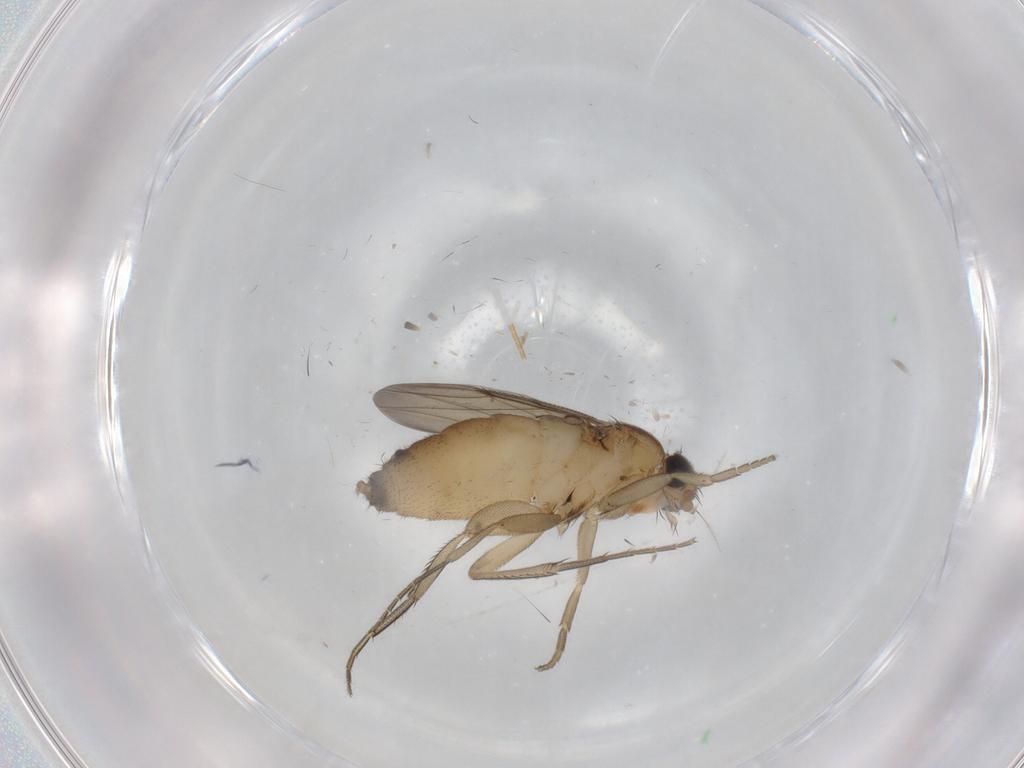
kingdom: Animalia
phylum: Arthropoda
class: Insecta
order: Diptera
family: Phoridae
